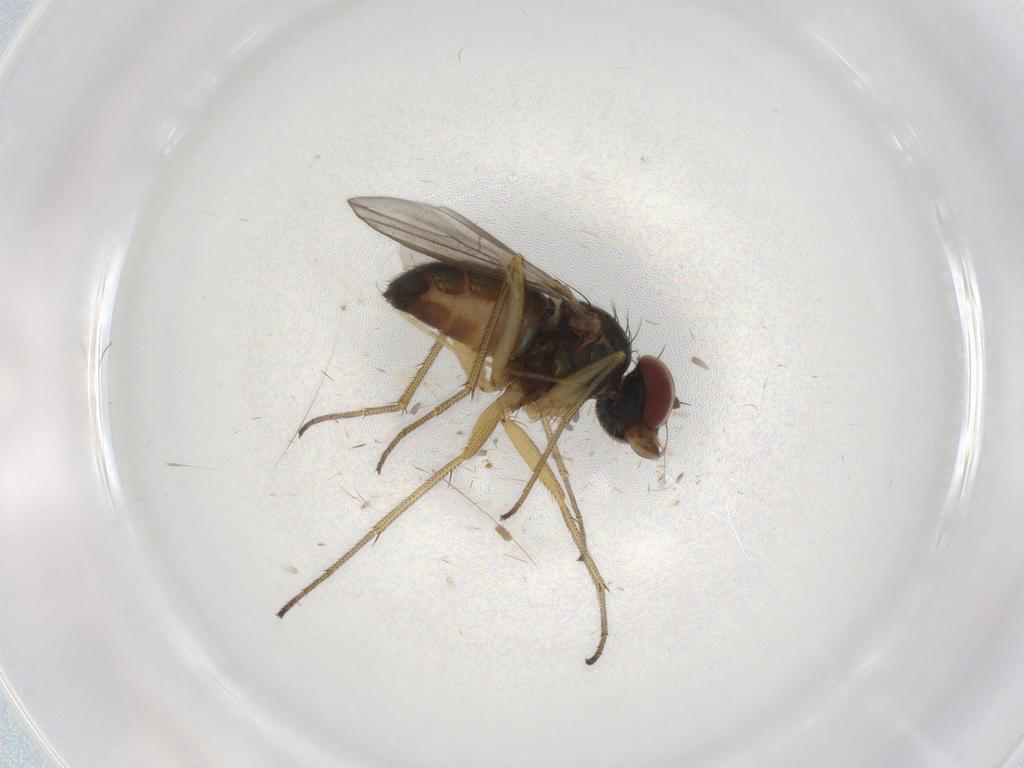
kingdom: Animalia
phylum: Arthropoda
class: Insecta
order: Diptera
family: Dolichopodidae
